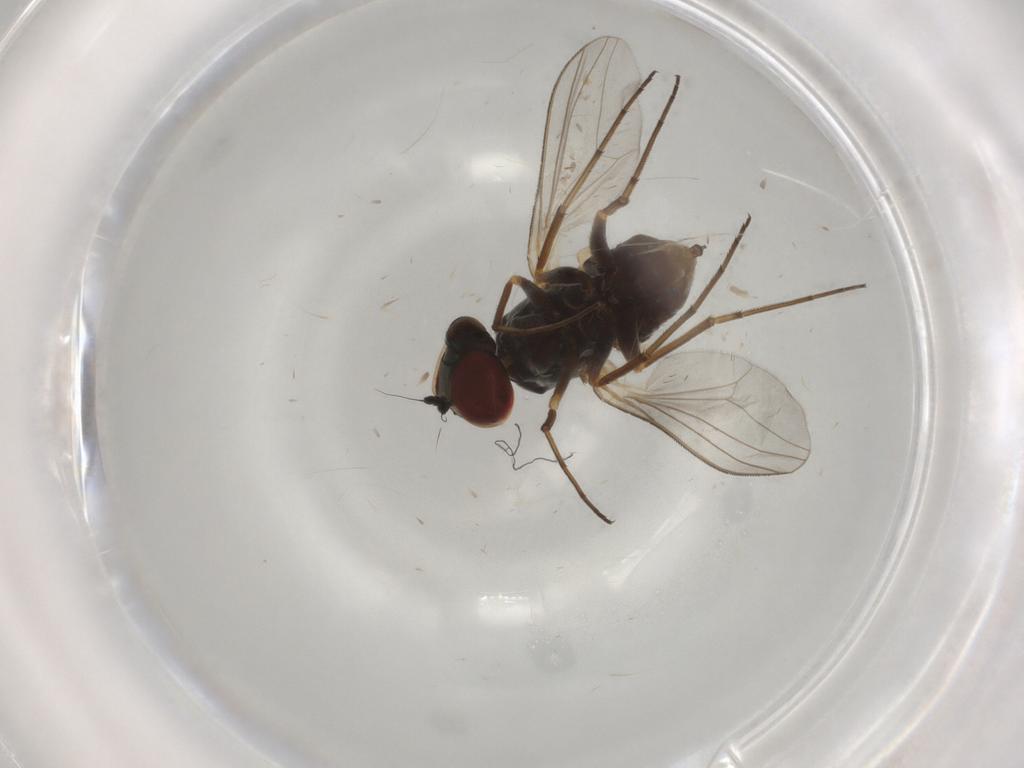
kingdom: Animalia
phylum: Arthropoda
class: Insecta
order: Diptera
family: Dolichopodidae
